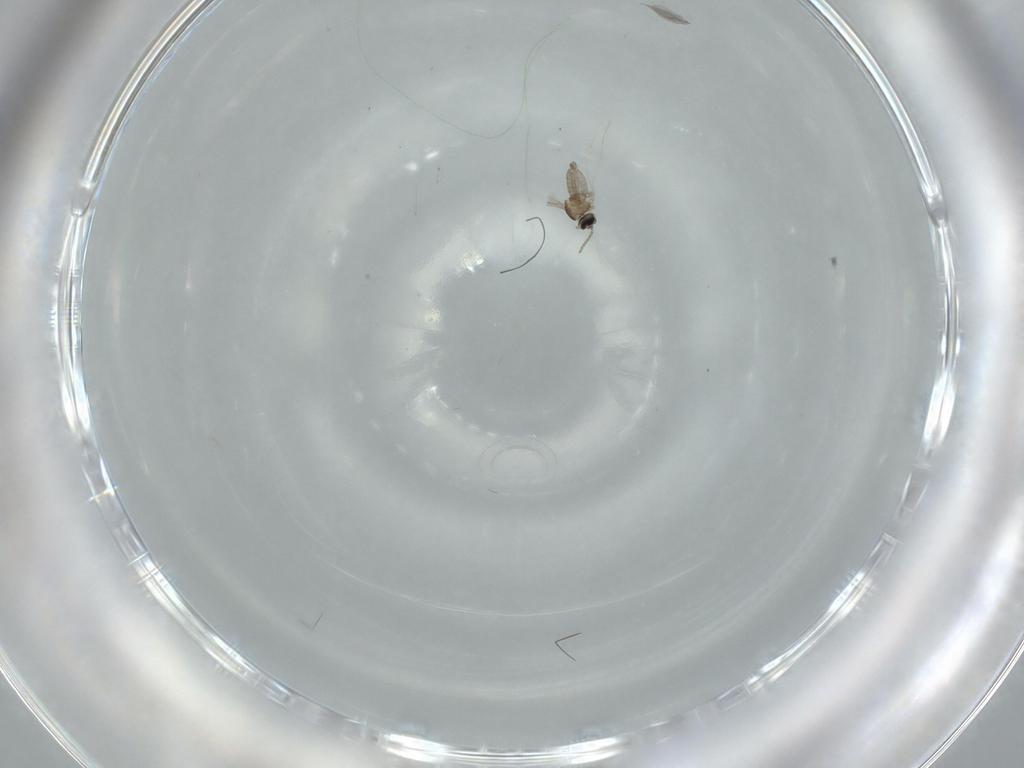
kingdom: Animalia
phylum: Arthropoda
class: Insecta
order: Diptera
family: Cecidomyiidae
